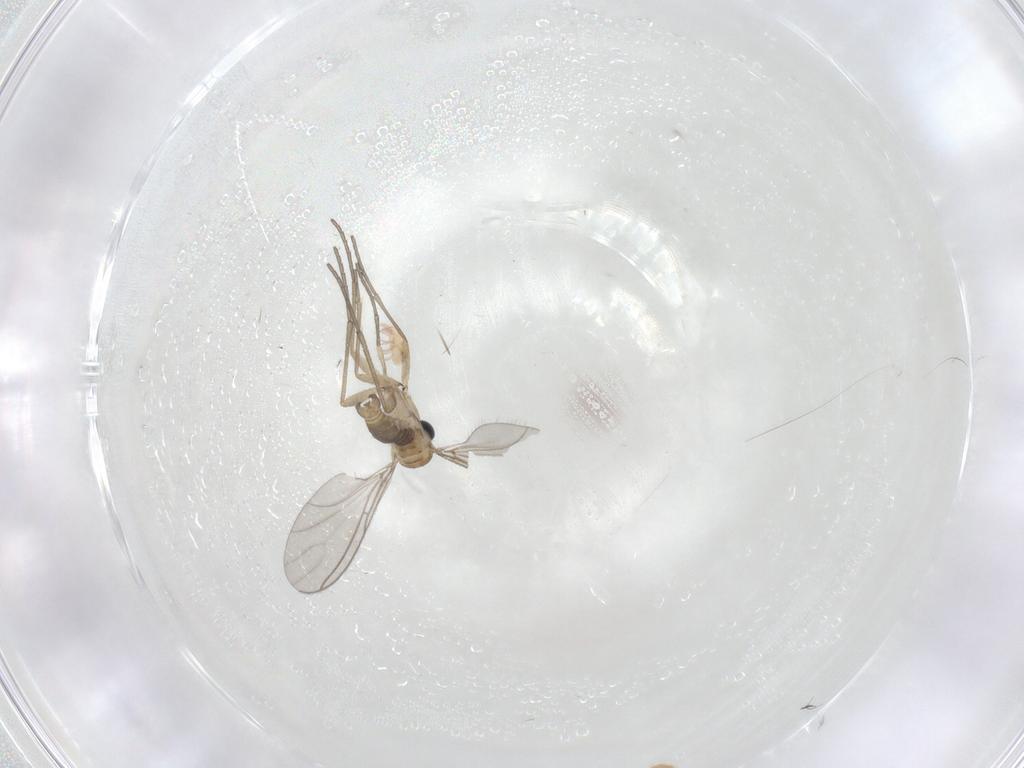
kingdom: Animalia
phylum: Arthropoda
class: Insecta
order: Diptera
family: Sciaridae
